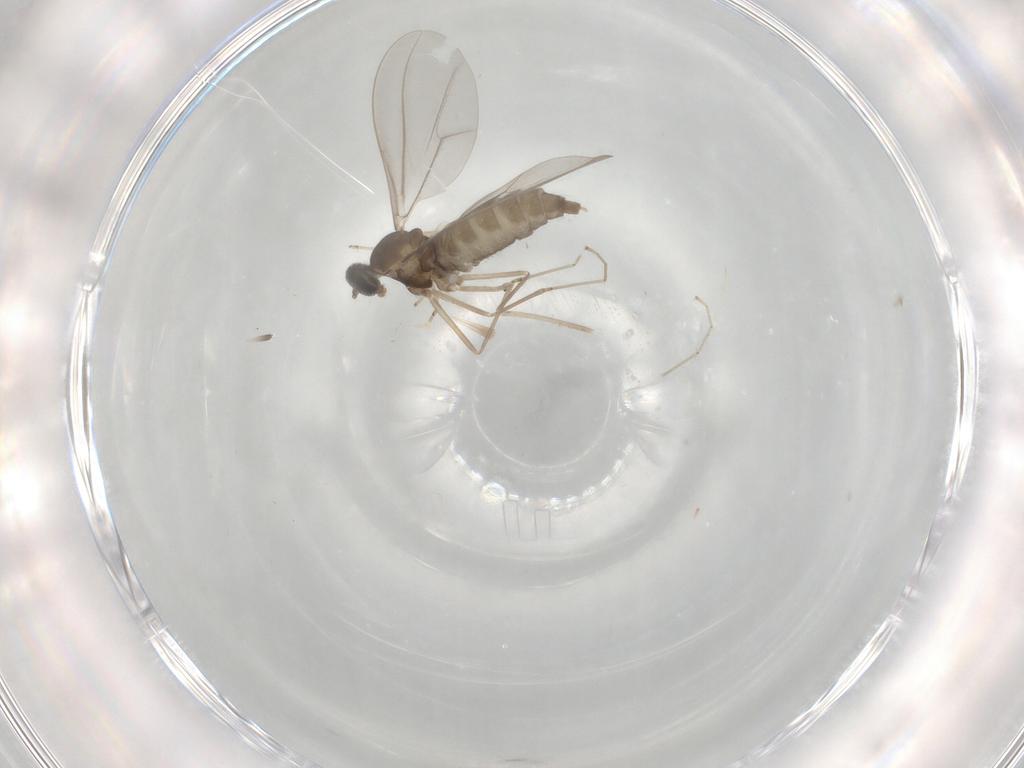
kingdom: Animalia
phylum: Arthropoda
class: Insecta
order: Diptera
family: Cecidomyiidae
